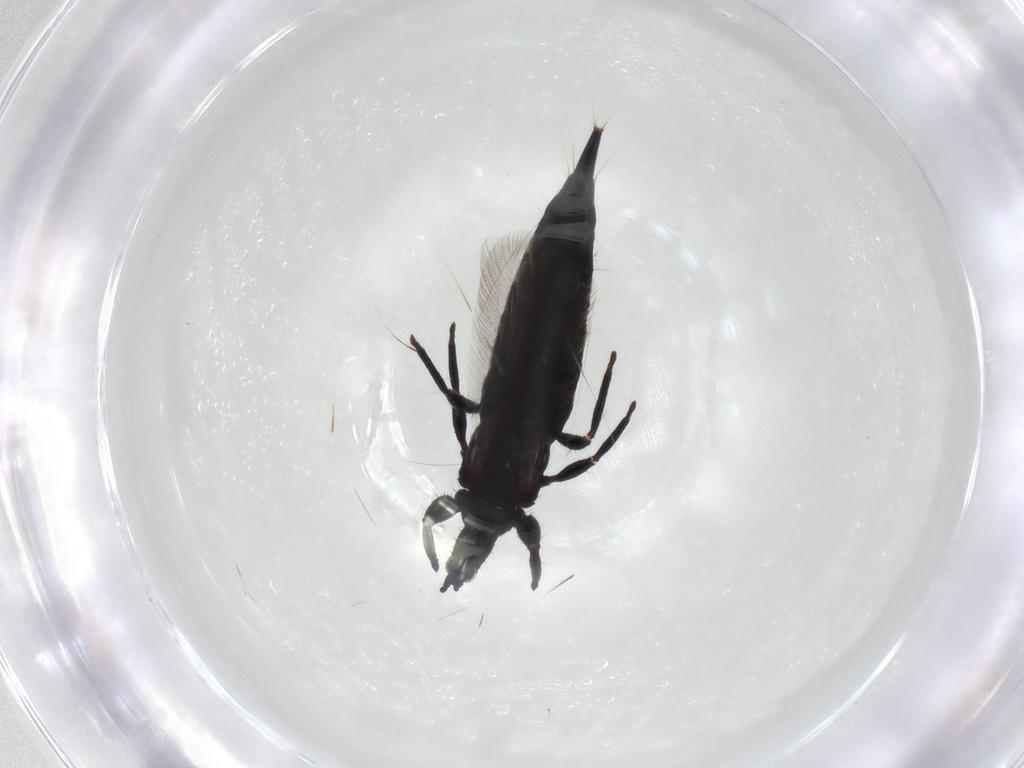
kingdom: Animalia
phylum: Arthropoda
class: Insecta
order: Thysanoptera
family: Phlaeothripidae
